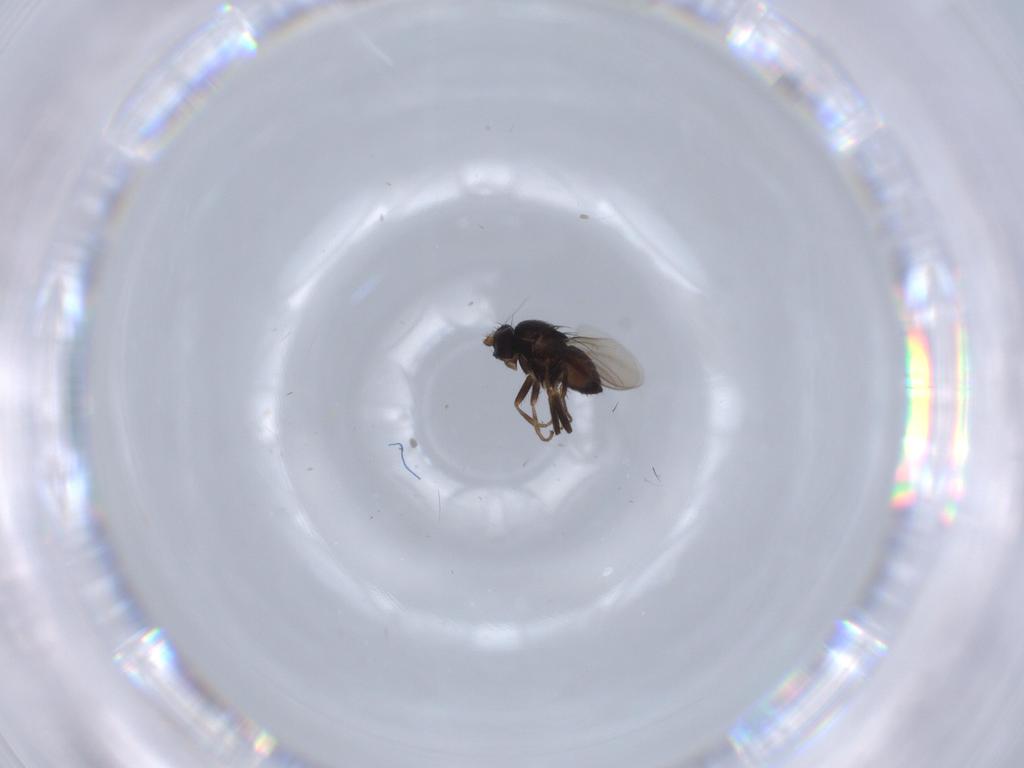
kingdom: Animalia
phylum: Arthropoda
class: Insecta
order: Diptera
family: Sphaeroceridae
